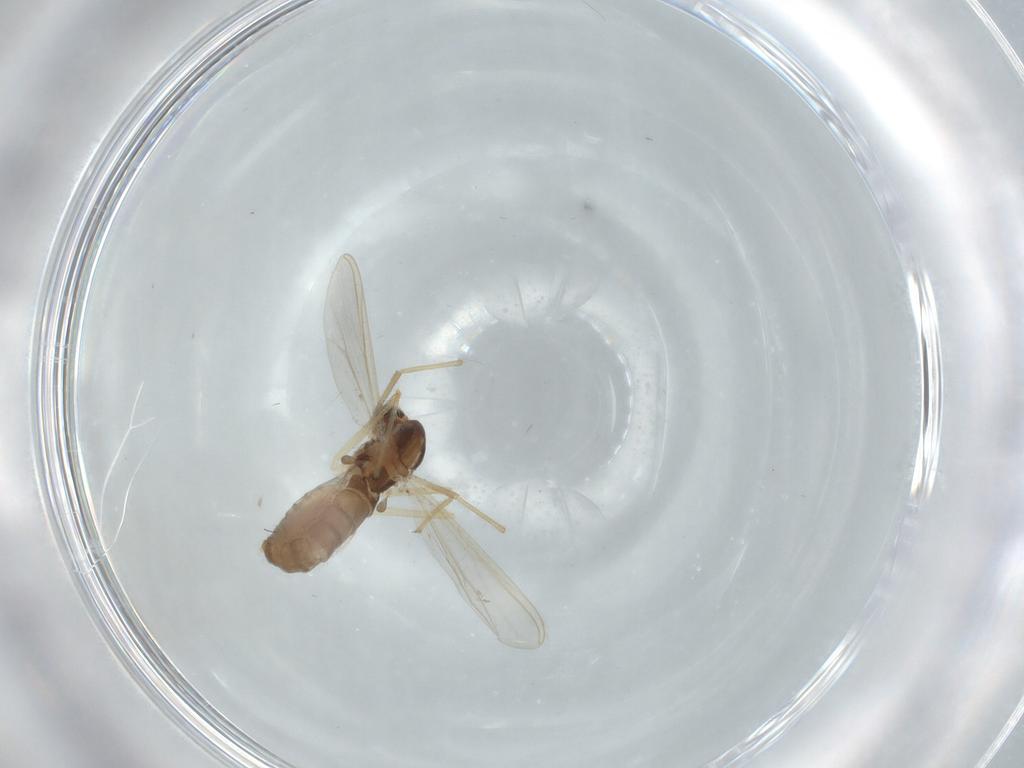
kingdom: Animalia
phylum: Arthropoda
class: Insecta
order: Diptera
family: Chironomidae
